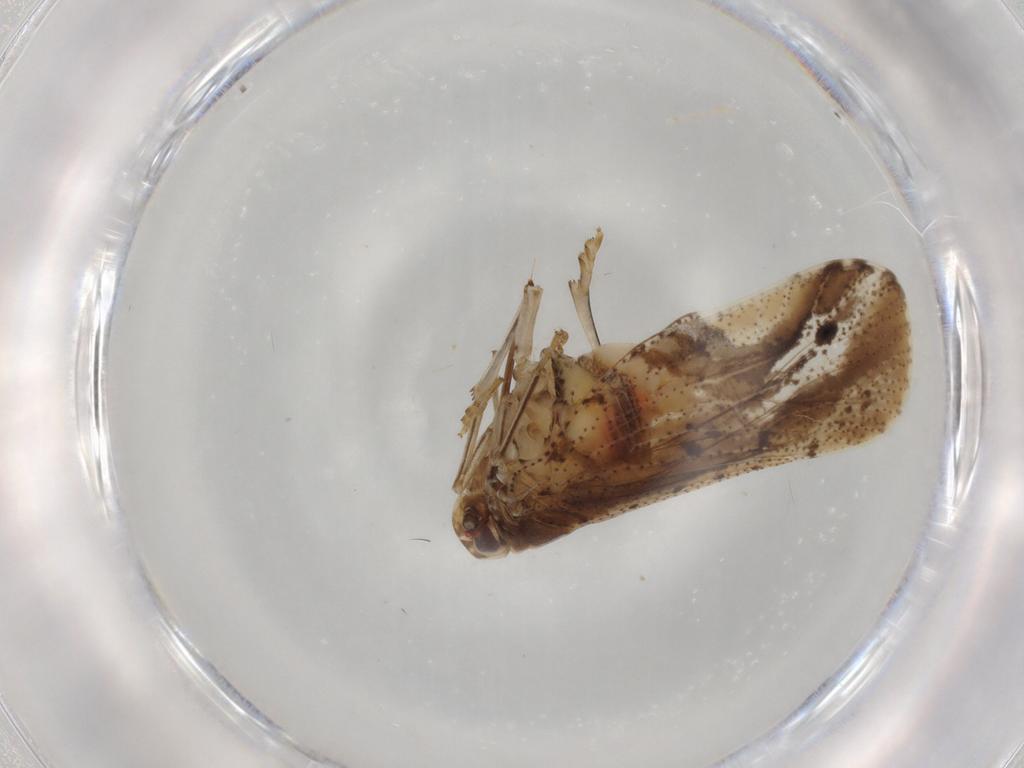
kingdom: Animalia
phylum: Arthropoda
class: Insecta
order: Hemiptera
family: Cixiidae
